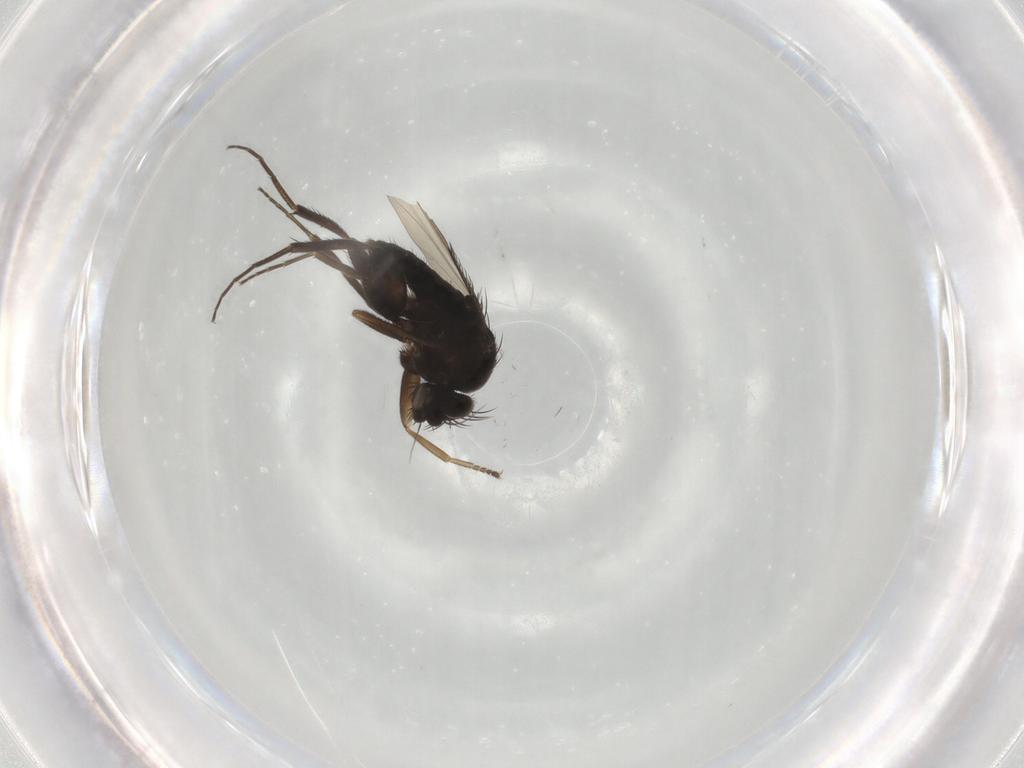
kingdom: Animalia
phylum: Arthropoda
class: Insecta
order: Diptera
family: Phoridae
